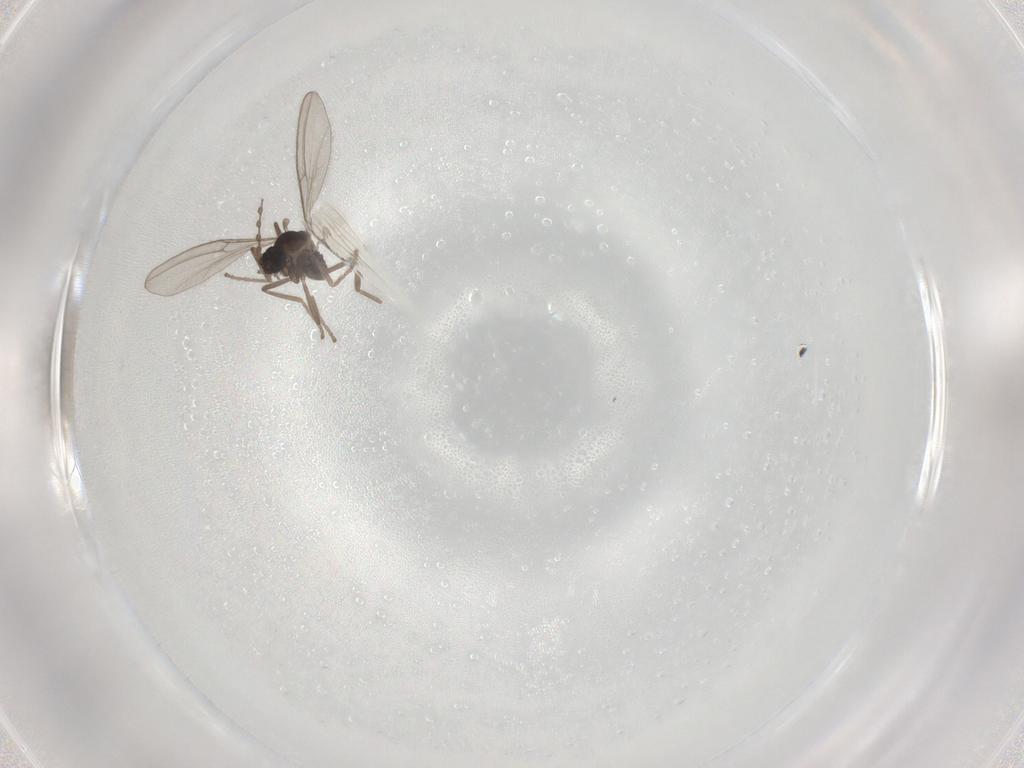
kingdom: Animalia
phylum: Arthropoda
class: Insecta
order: Diptera
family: Cecidomyiidae
